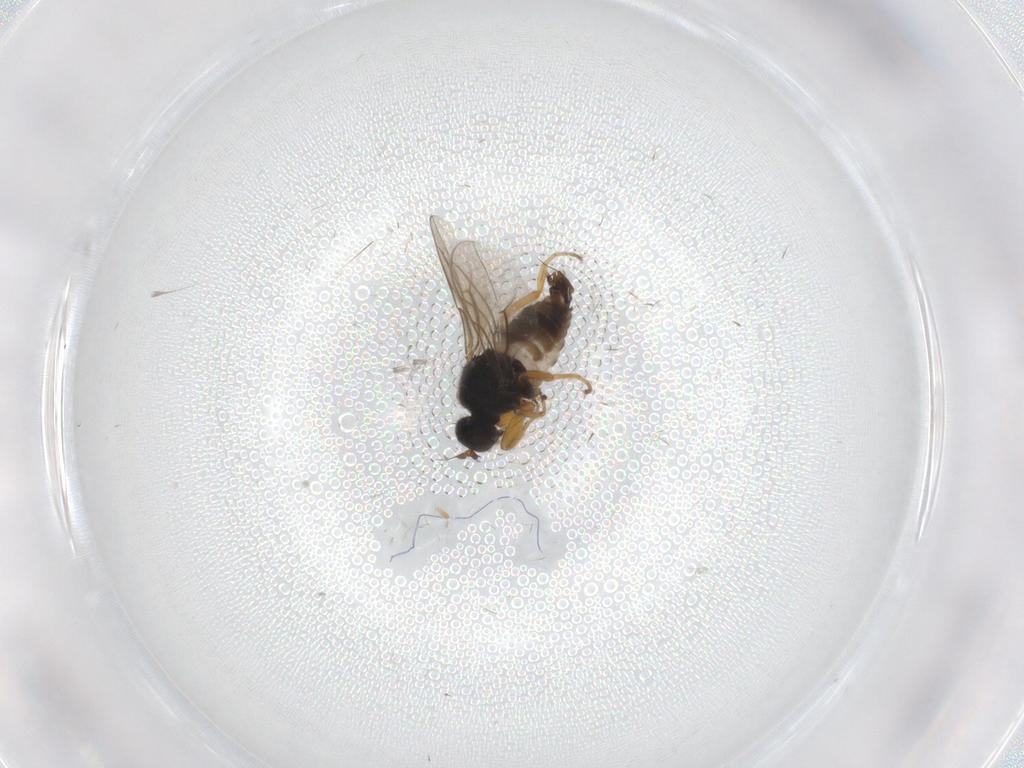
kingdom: Animalia
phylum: Arthropoda
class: Insecta
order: Diptera
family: Hybotidae
